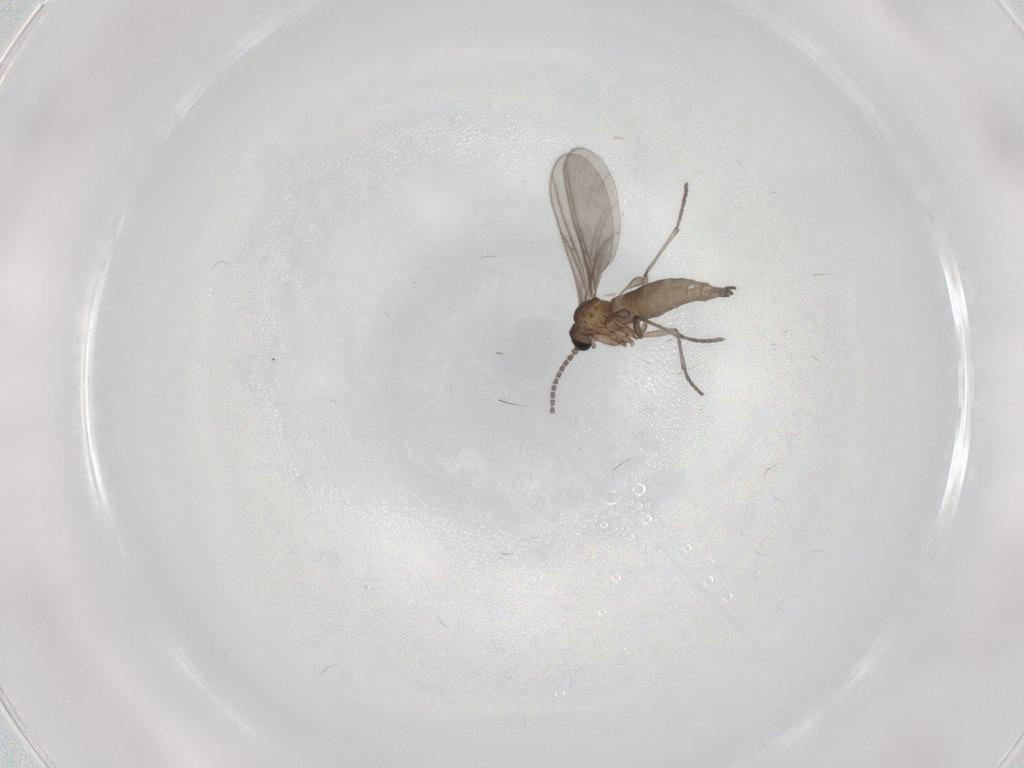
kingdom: Animalia
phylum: Arthropoda
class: Insecta
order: Diptera
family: Sciaridae
